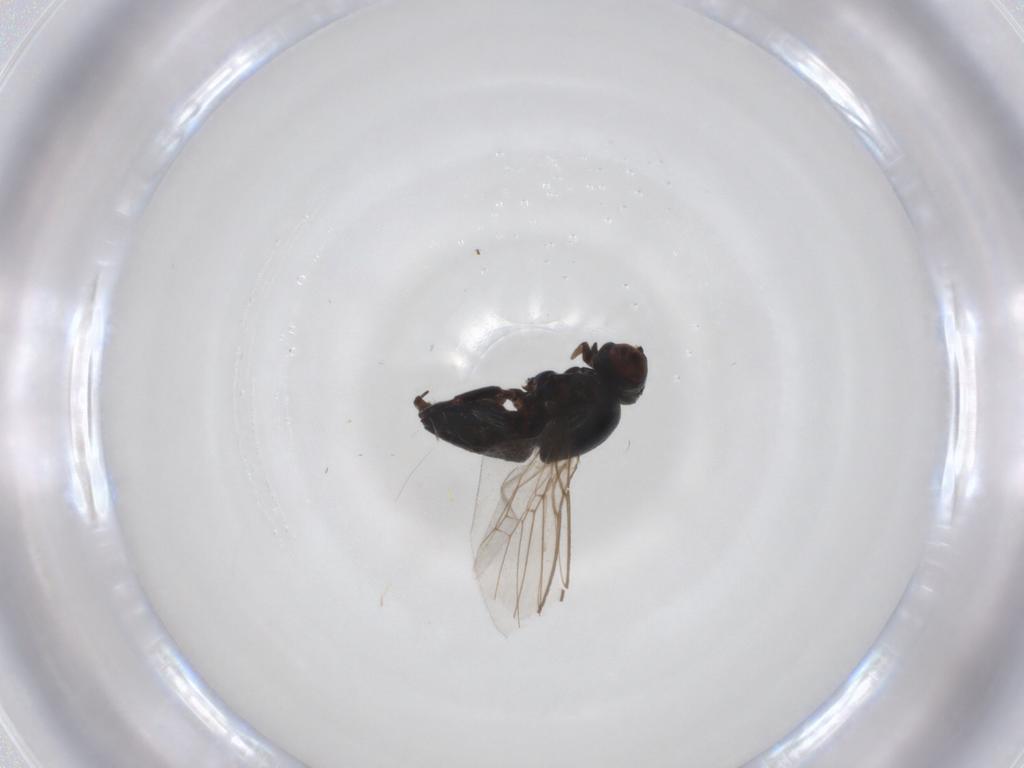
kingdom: Animalia
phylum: Arthropoda
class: Insecta
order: Diptera
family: Chloropidae
